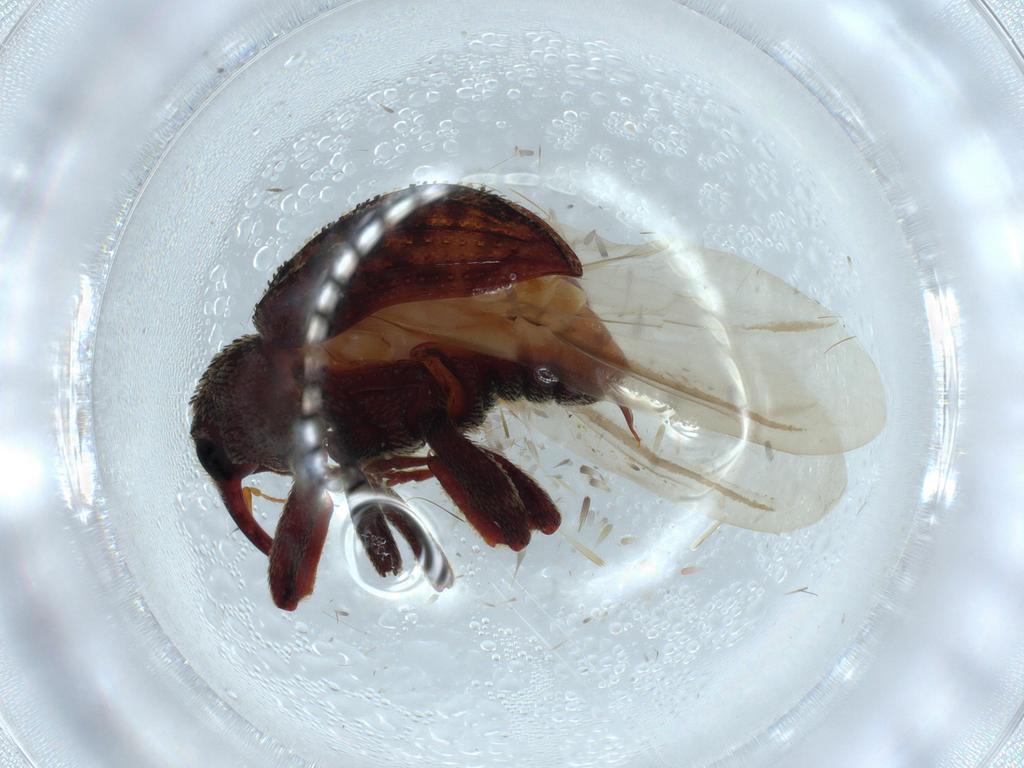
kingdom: Animalia
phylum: Arthropoda
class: Insecta
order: Coleoptera
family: Curculionidae
